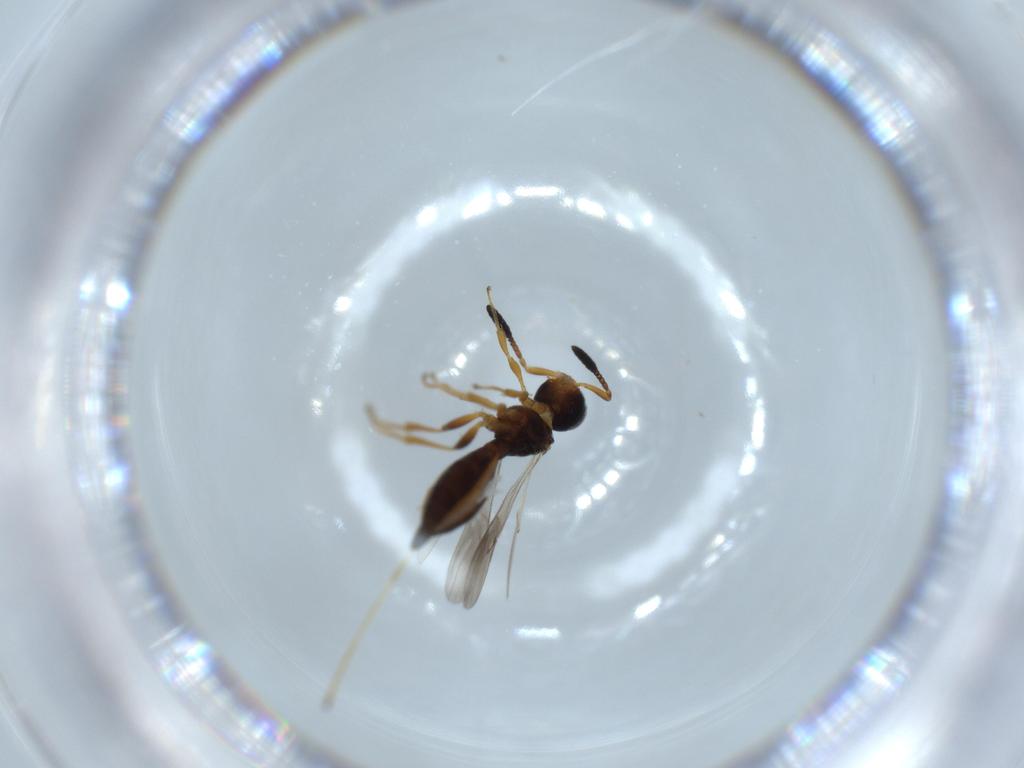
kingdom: Animalia
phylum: Arthropoda
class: Insecta
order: Hymenoptera
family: Scelionidae
